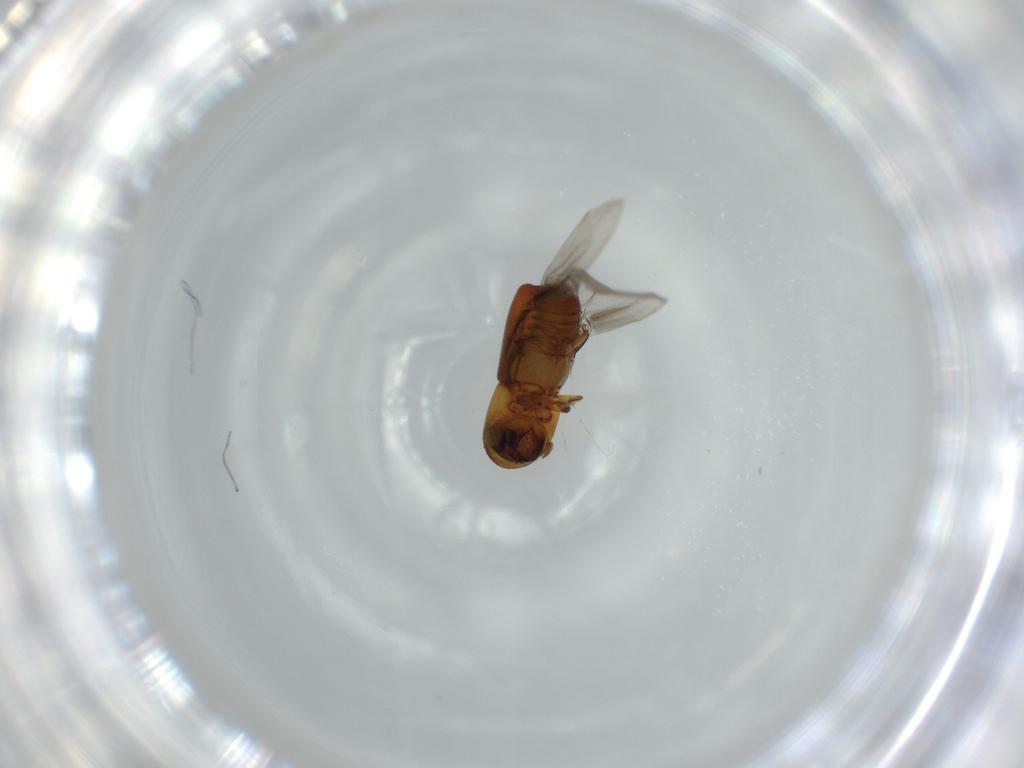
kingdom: Animalia
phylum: Arthropoda
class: Insecta
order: Coleoptera
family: Curculionidae
